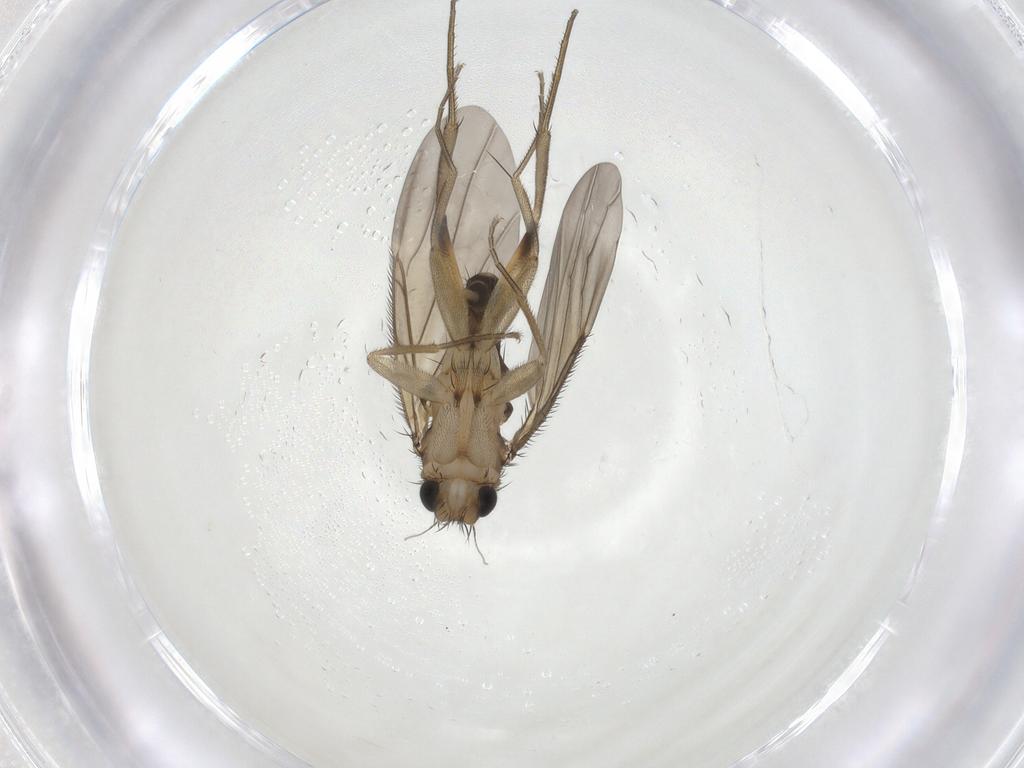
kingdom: Animalia
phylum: Arthropoda
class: Insecta
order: Diptera
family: Phoridae
